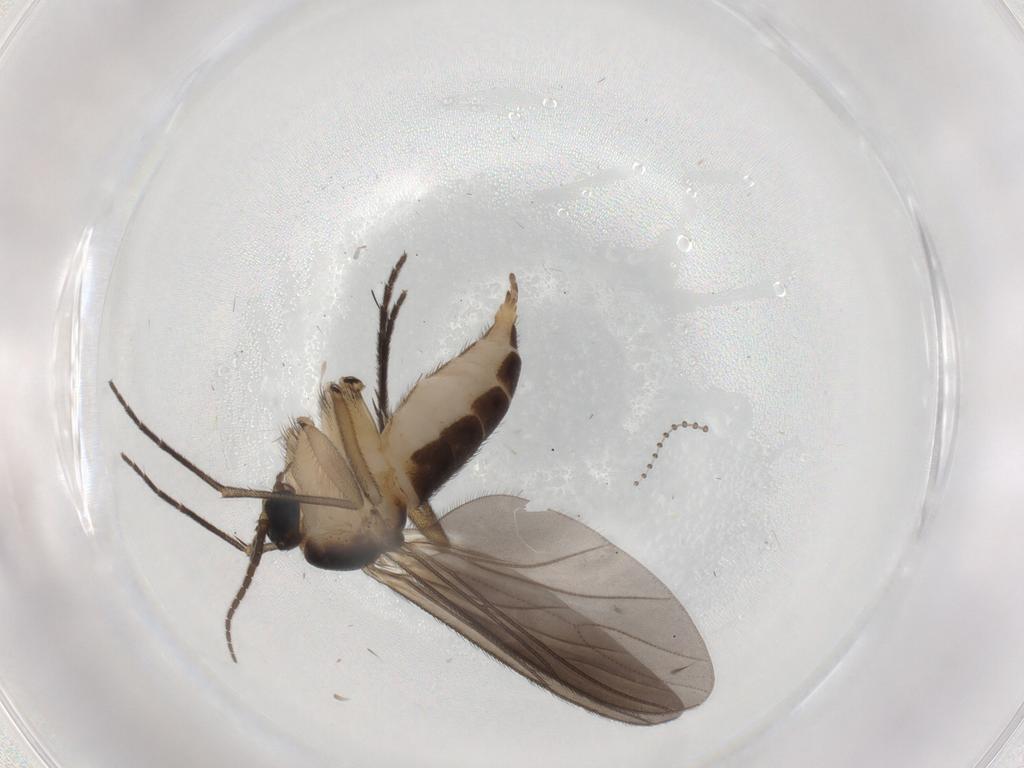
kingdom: Animalia
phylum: Arthropoda
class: Insecta
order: Diptera
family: Sciaridae
